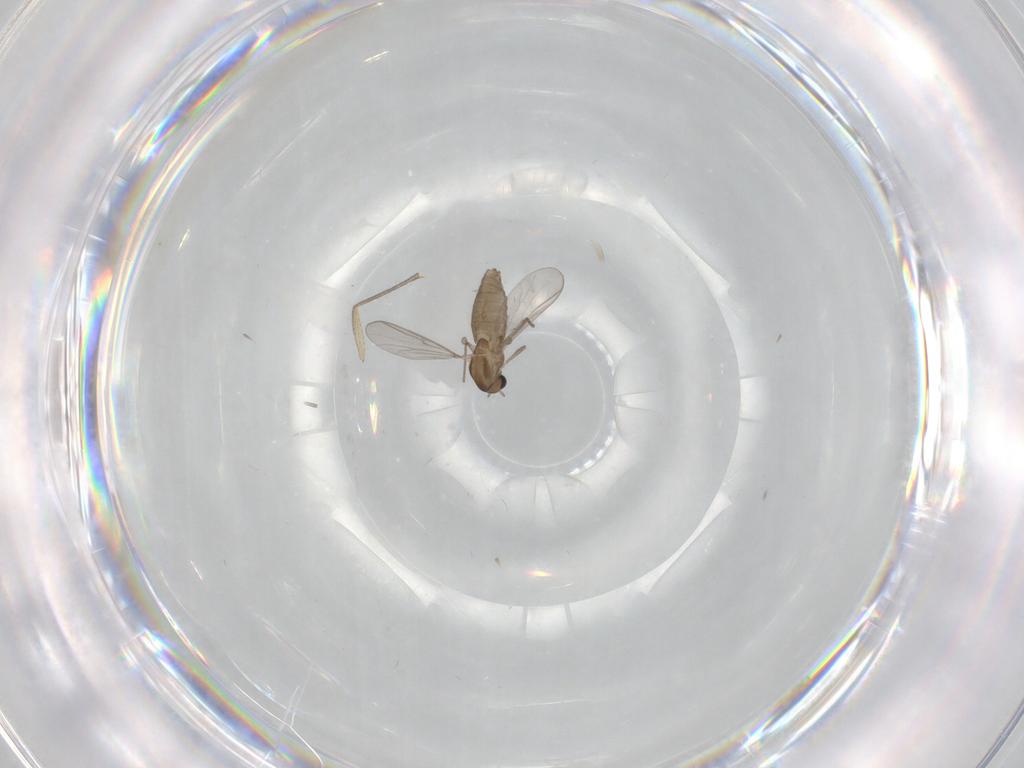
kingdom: Animalia
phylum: Arthropoda
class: Insecta
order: Diptera
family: Sciaridae
